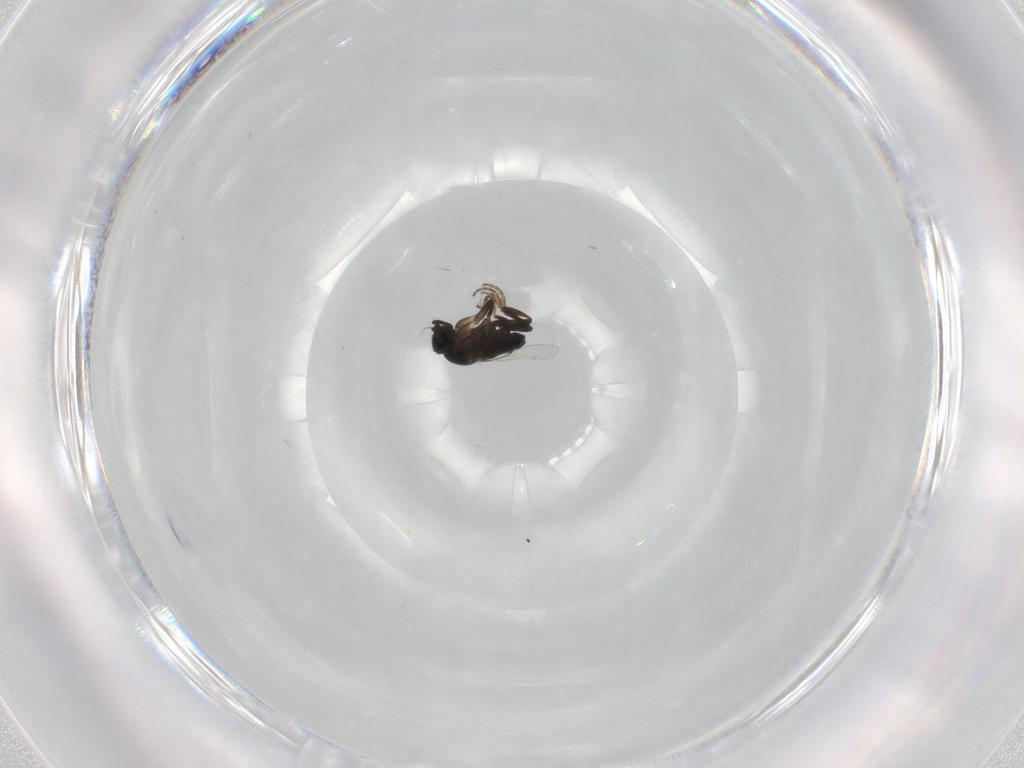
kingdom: Animalia
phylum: Arthropoda
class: Insecta
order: Diptera
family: Phoridae
